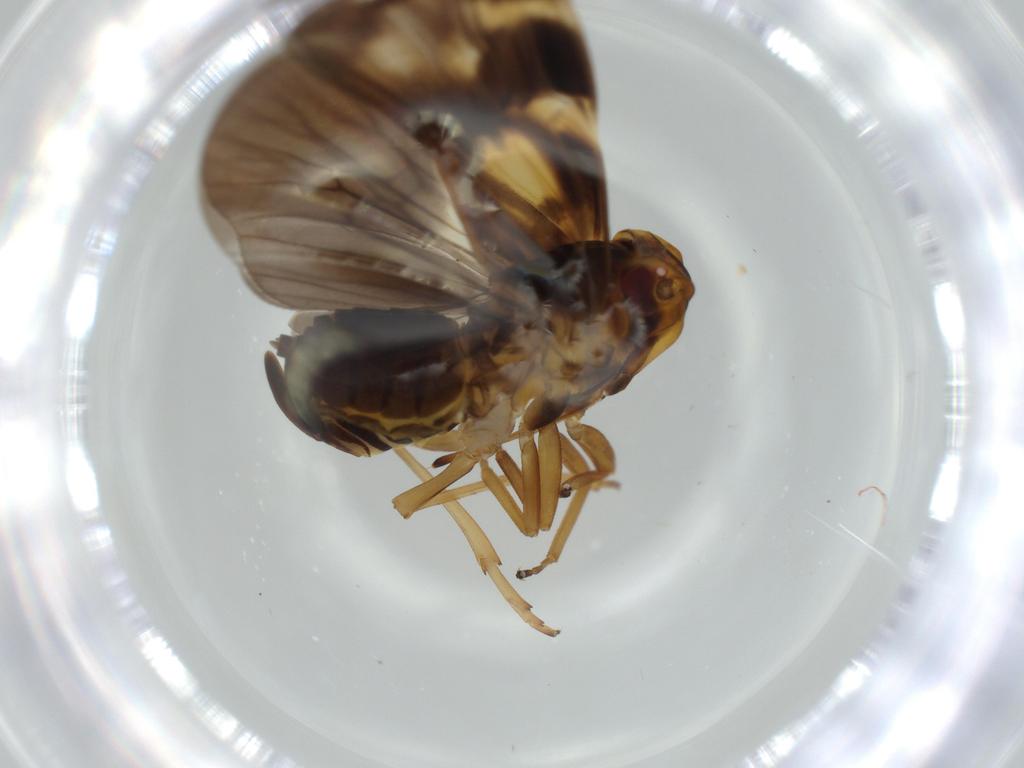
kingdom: Animalia
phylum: Arthropoda
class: Insecta
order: Hemiptera
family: Cixiidae
